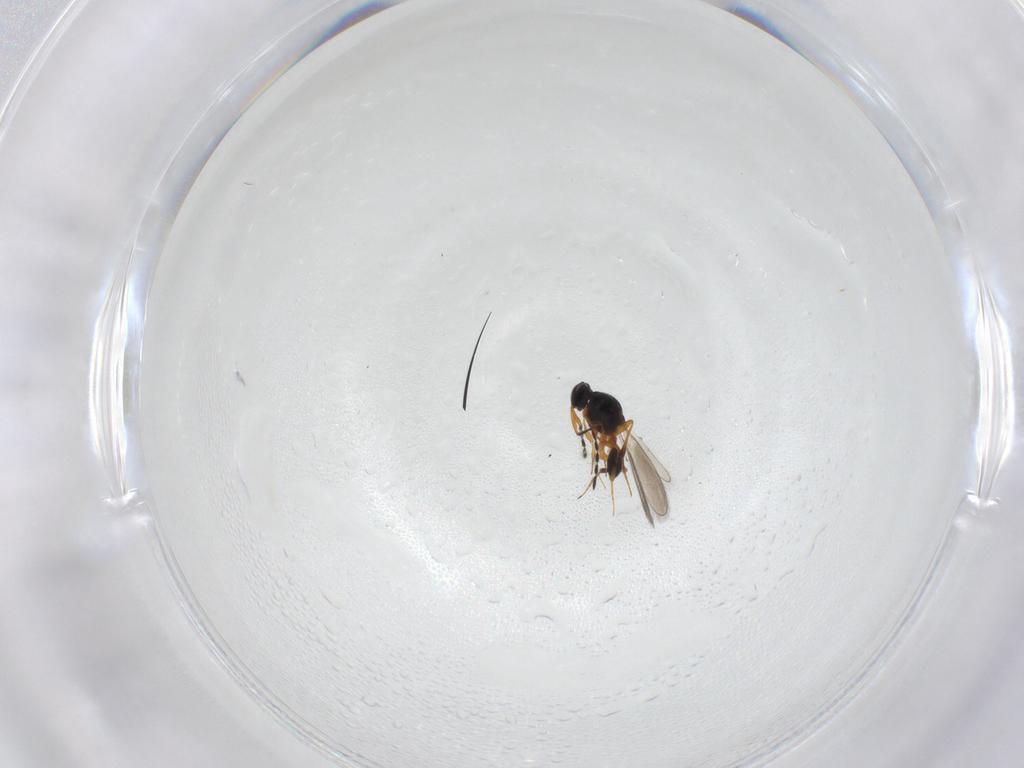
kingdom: Animalia
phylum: Arthropoda
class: Insecta
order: Hymenoptera
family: Platygastridae
